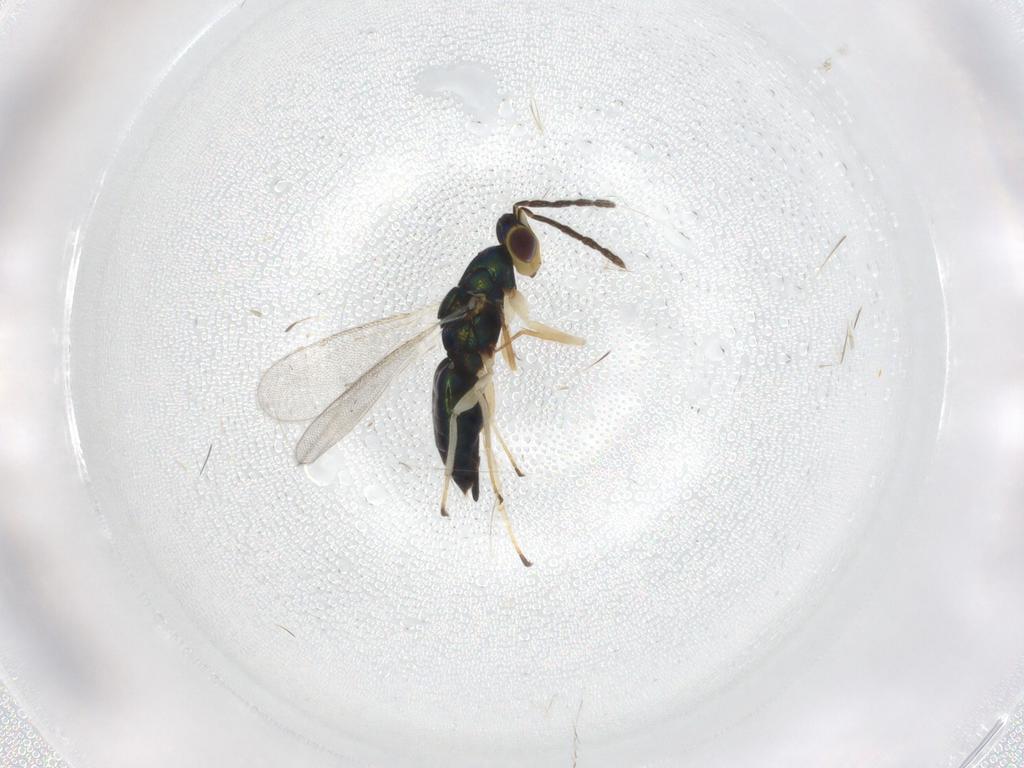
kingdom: Animalia
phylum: Arthropoda
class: Insecta
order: Hymenoptera
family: Eulophidae
